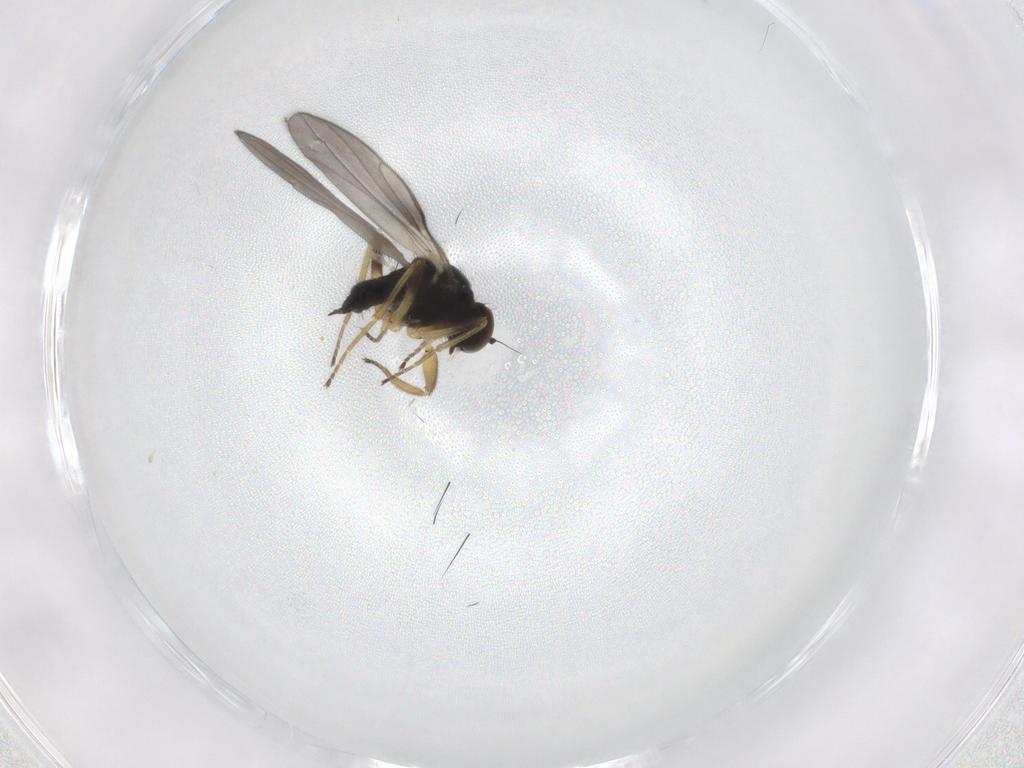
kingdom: Animalia
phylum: Arthropoda
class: Insecta
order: Diptera
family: Hybotidae
